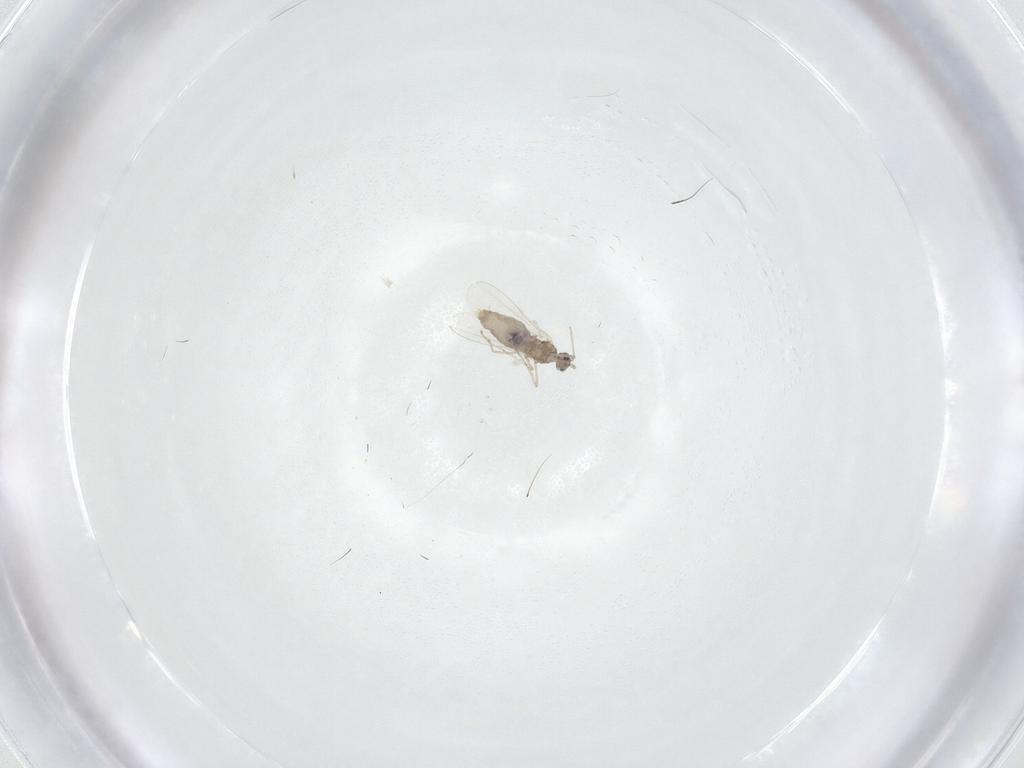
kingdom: Animalia
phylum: Arthropoda
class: Insecta
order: Diptera
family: Cecidomyiidae
